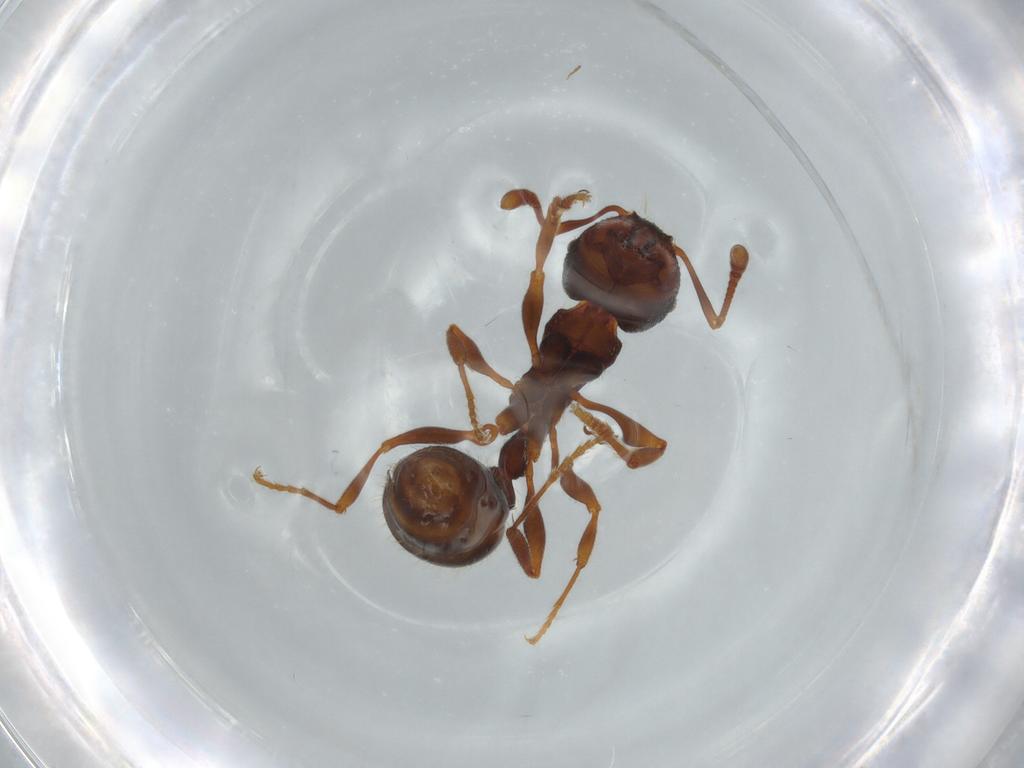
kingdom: Animalia
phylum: Arthropoda
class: Insecta
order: Hymenoptera
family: Formicidae
